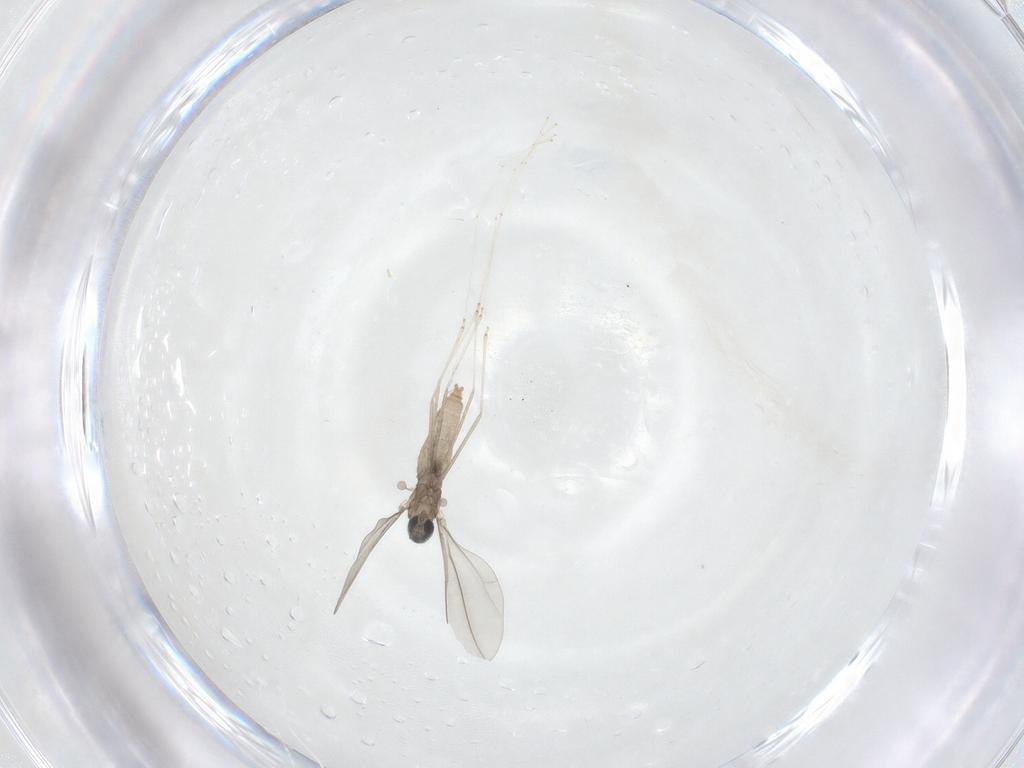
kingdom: Animalia
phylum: Arthropoda
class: Insecta
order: Diptera
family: Cecidomyiidae
